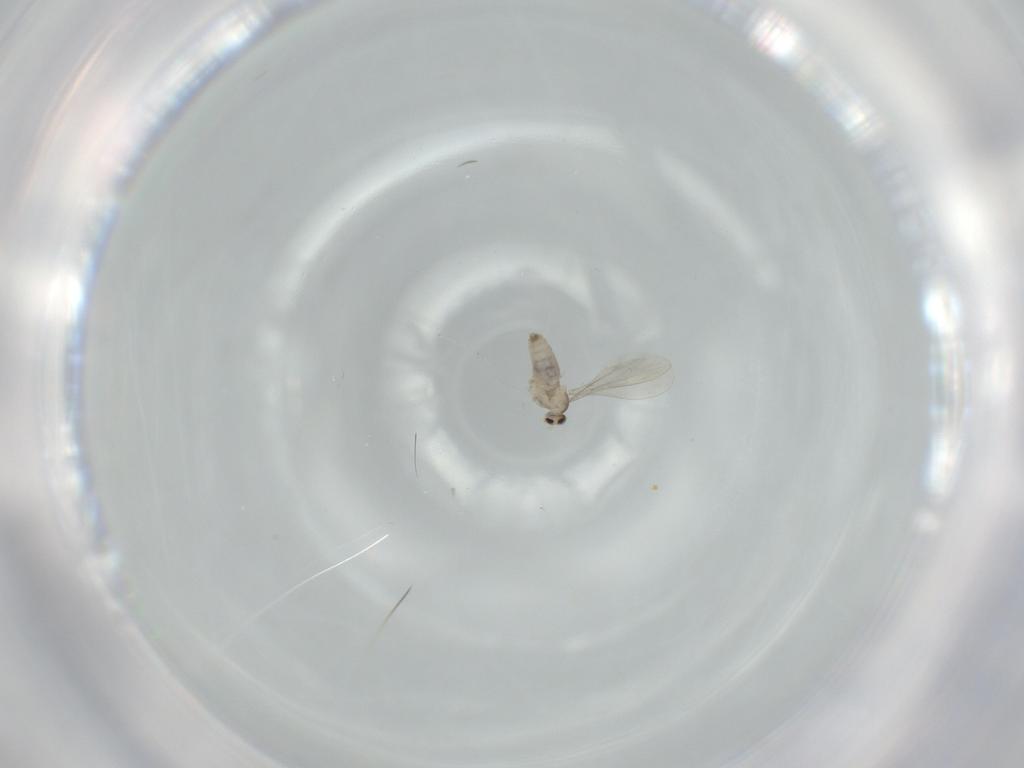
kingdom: Animalia
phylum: Arthropoda
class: Insecta
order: Diptera
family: Cecidomyiidae
